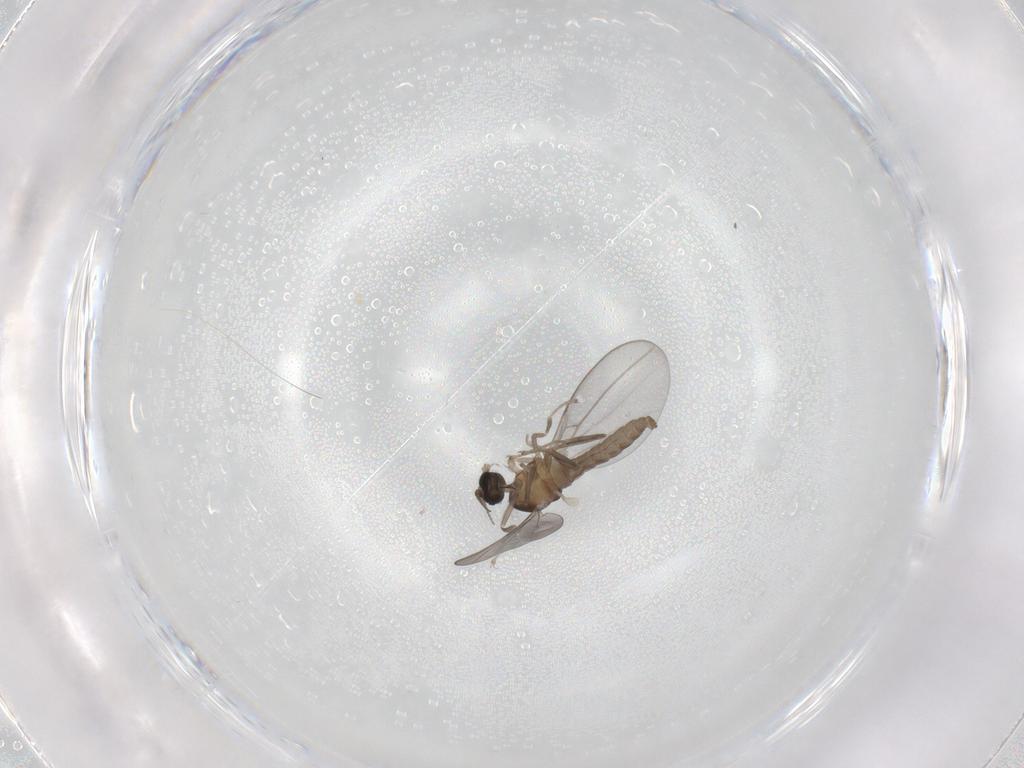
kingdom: Animalia
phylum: Arthropoda
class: Insecta
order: Diptera
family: Cecidomyiidae
